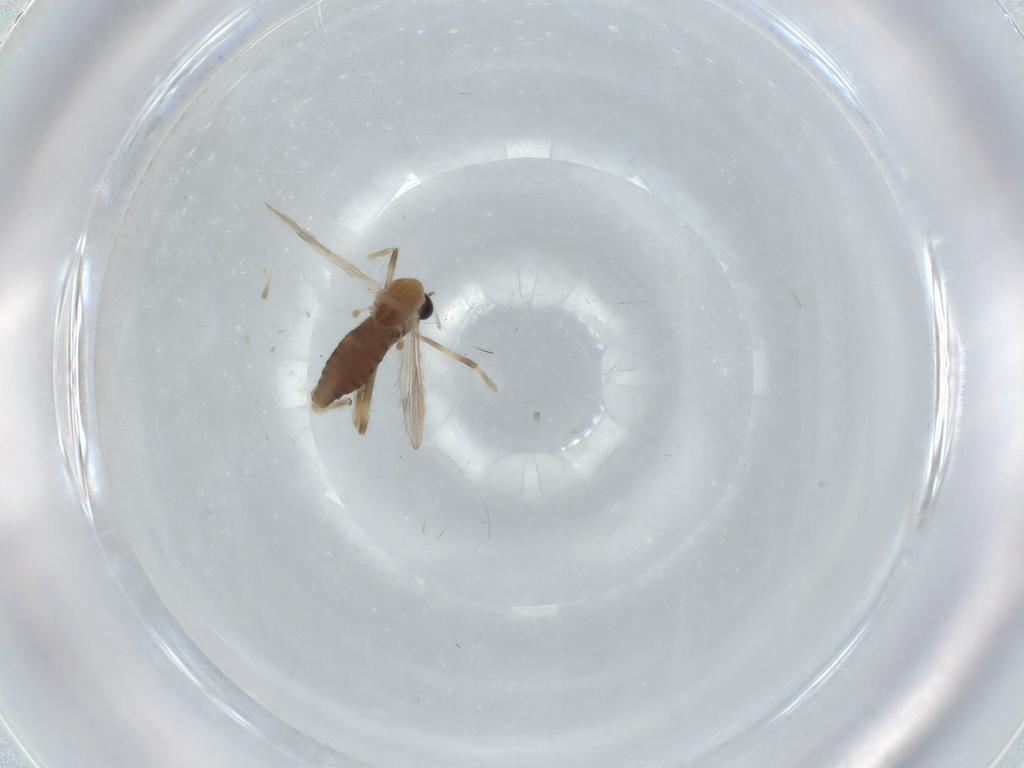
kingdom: Animalia
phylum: Arthropoda
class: Insecta
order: Diptera
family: Chironomidae
